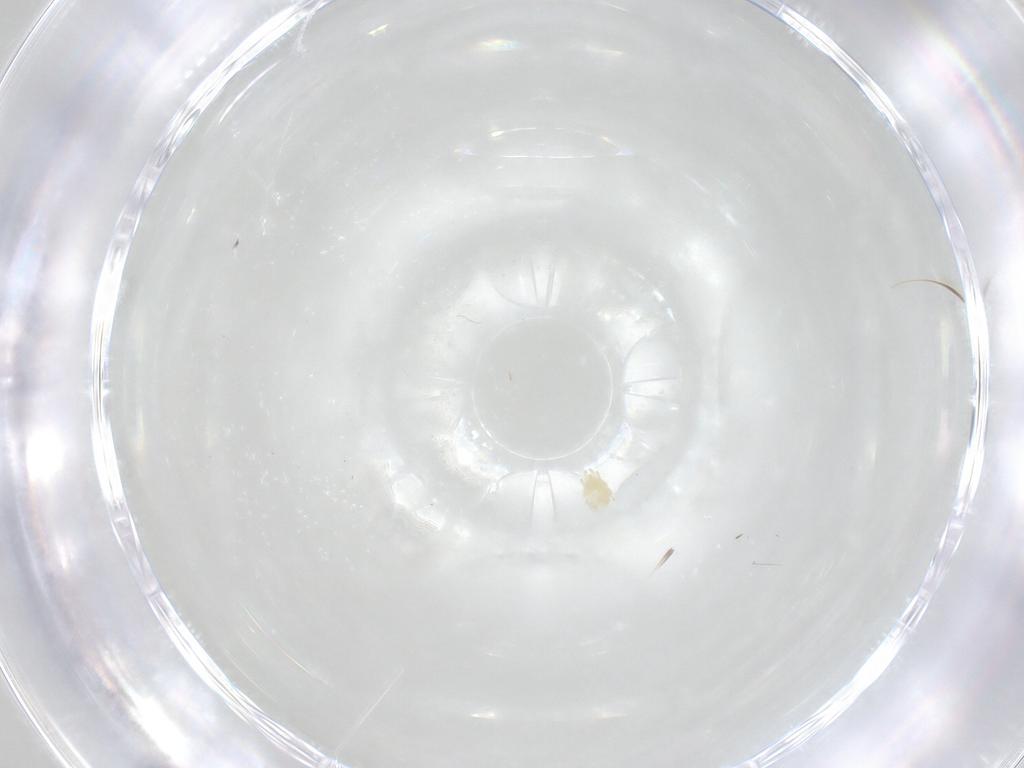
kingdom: Animalia
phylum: Arthropoda
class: Arachnida
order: Trombidiformes
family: Tetranychidae
